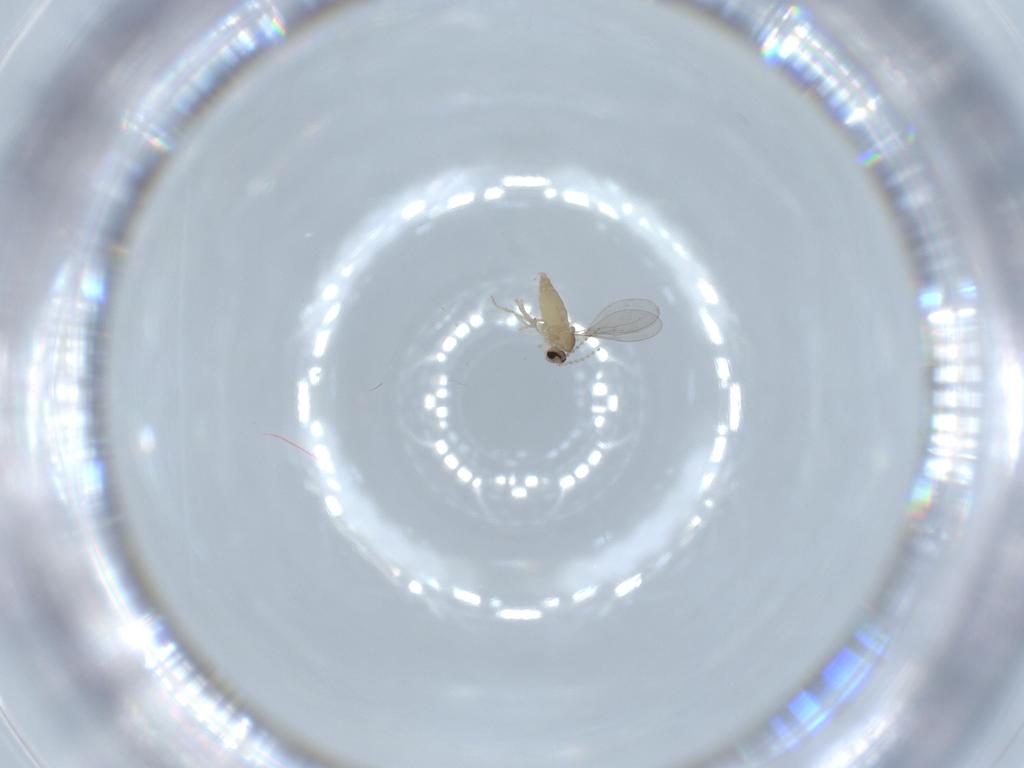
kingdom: Animalia
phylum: Arthropoda
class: Insecta
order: Diptera
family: Cecidomyiidae
